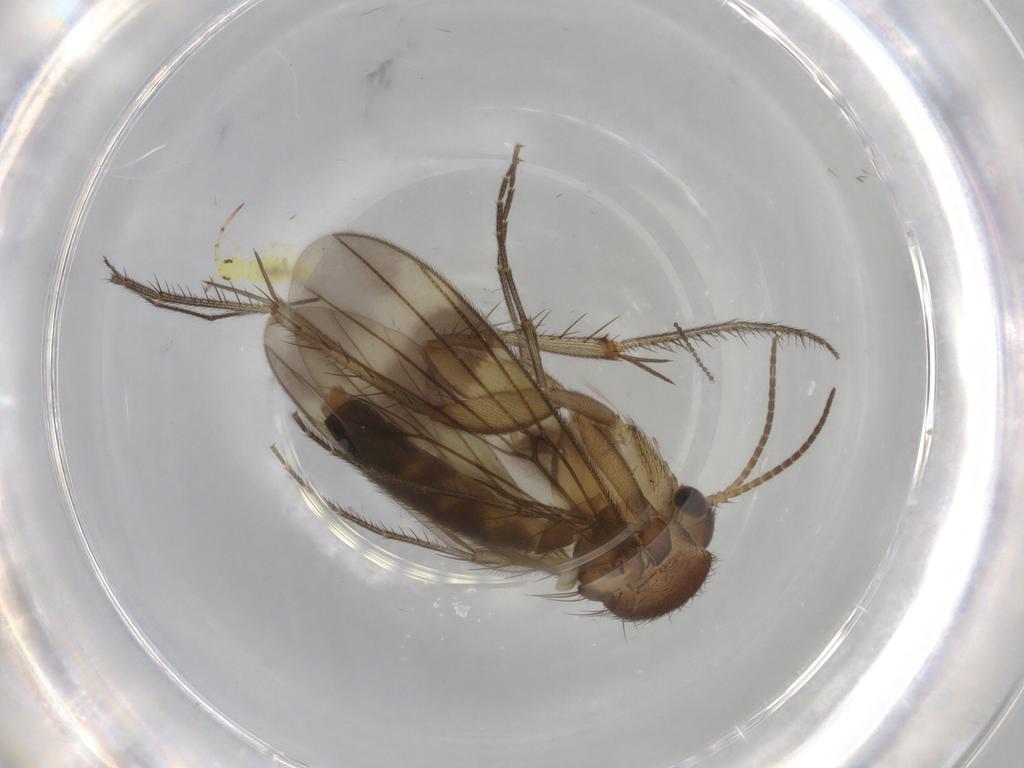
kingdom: Animalia
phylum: Arthropoda
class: Insecta
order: Diptera
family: Cecidomyiidae
